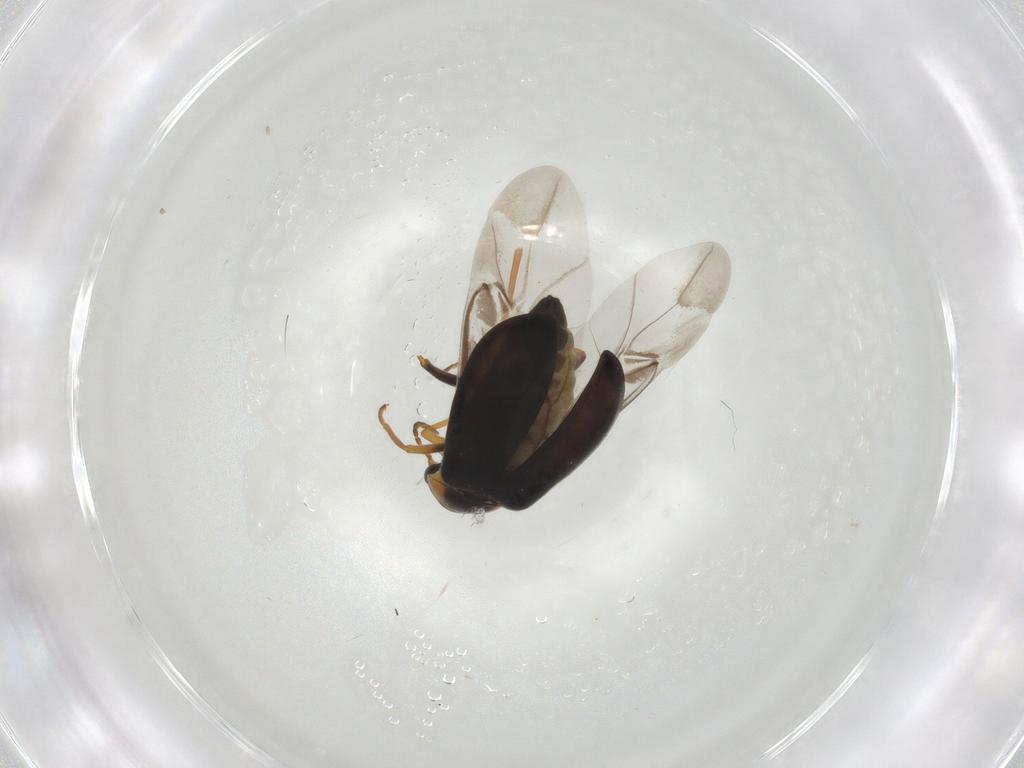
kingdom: Animalia
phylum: Arthropoda
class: Insecta
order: Coleoptera
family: Melyridae
